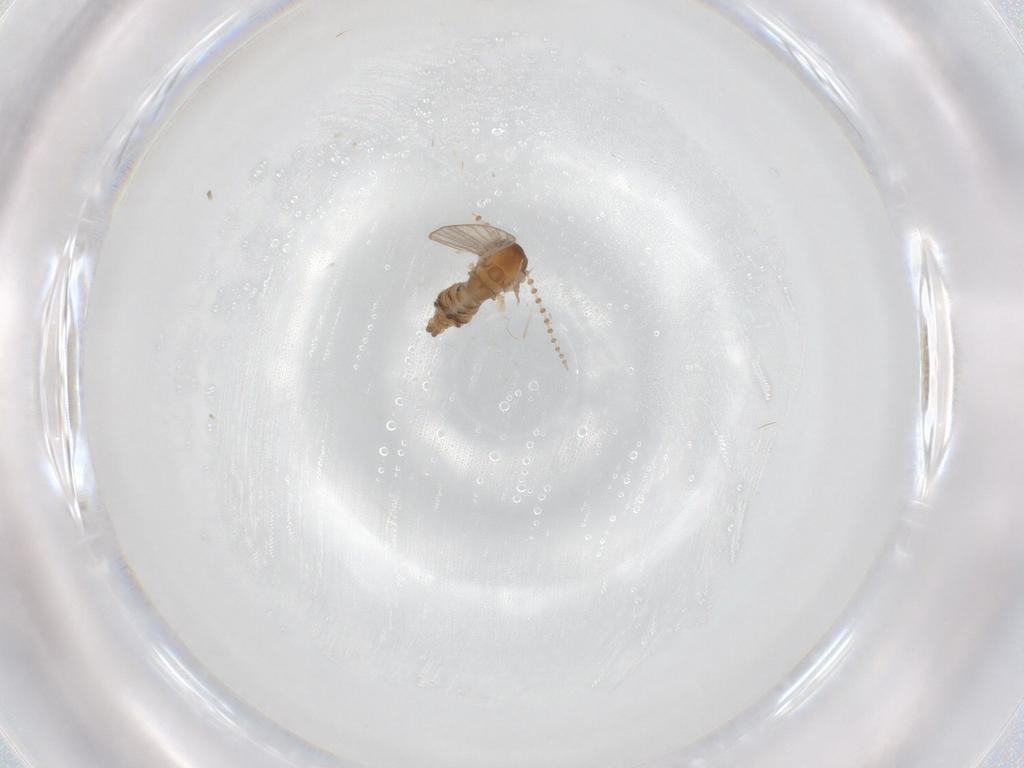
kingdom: Animalia
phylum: Arthropoda
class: Insecta
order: Diptera
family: Psychodidae
